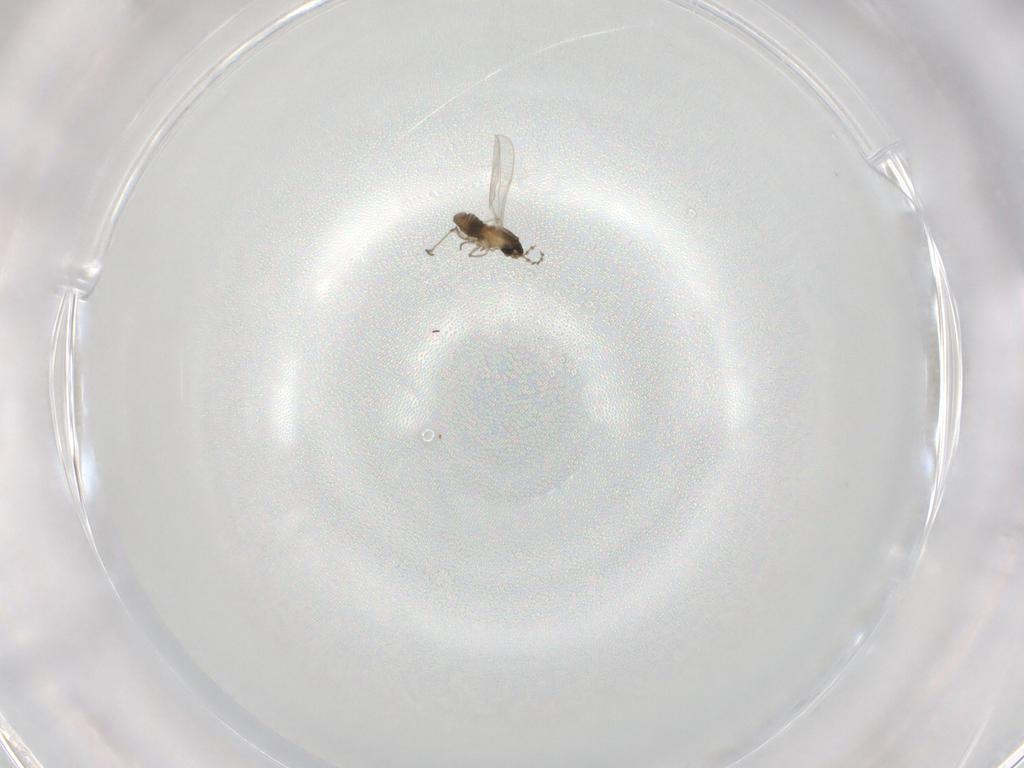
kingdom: Animalia
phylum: Arthropoda
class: Insecta
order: Diptera
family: Cecidomyiidae
